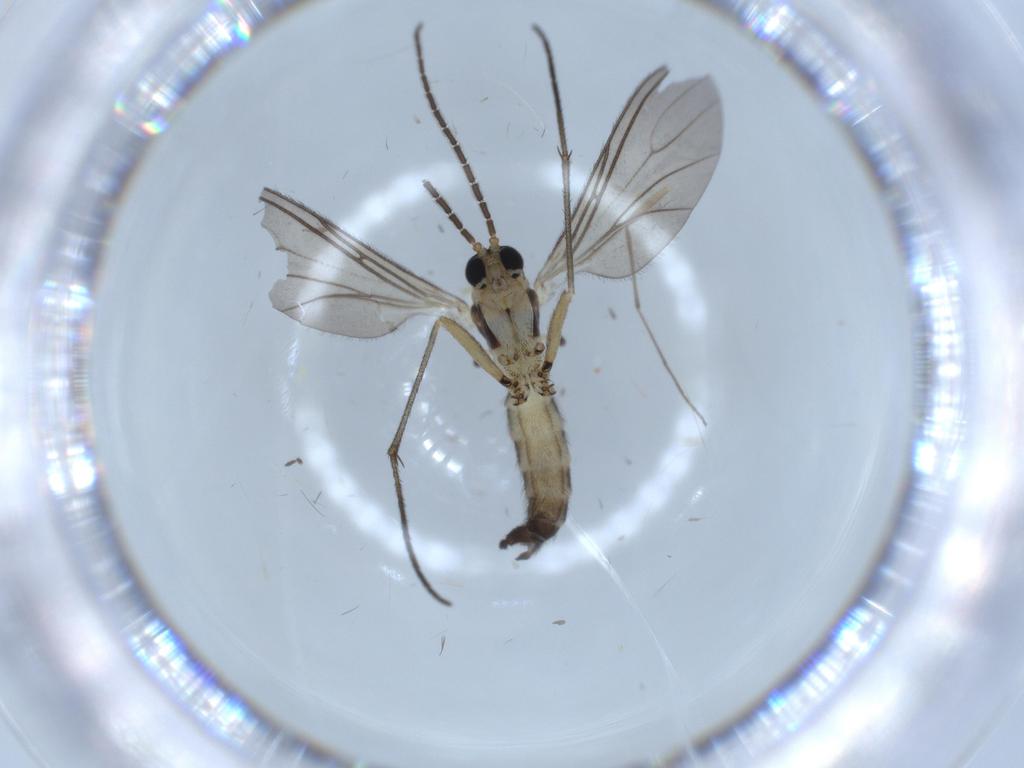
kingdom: Animalia
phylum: Arthropoda
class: Insecta
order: Diptera
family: Sciaridae
